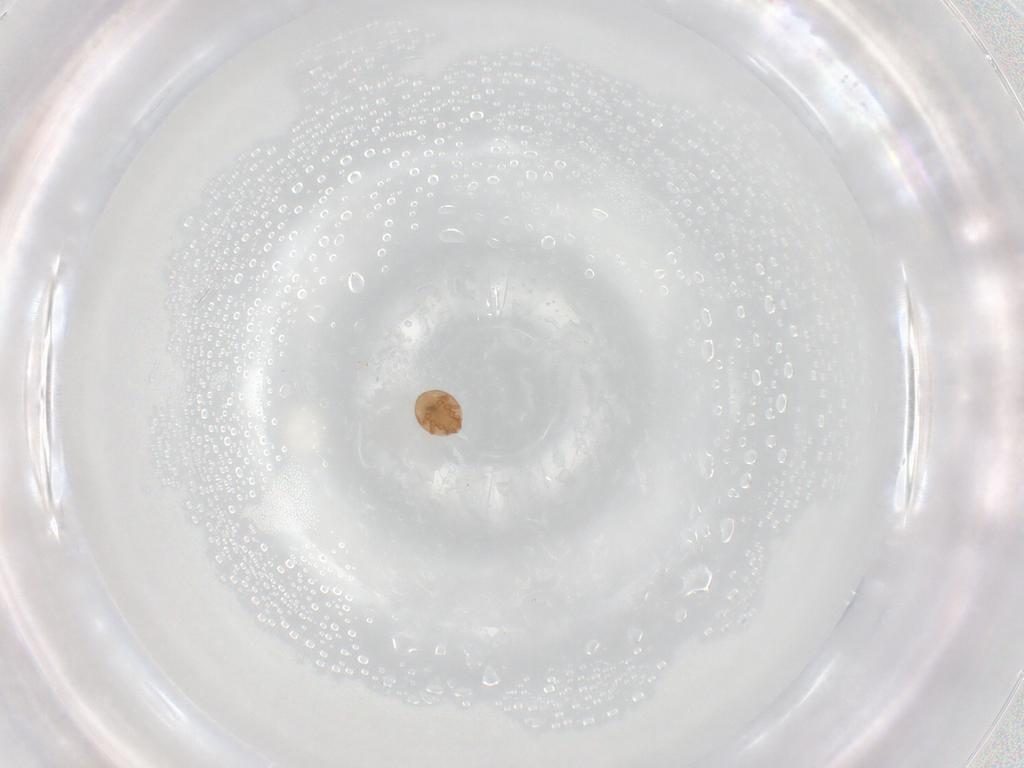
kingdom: Animalia
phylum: Arthropoda
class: Arachnida
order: Mesostigmata
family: Trematuridae
